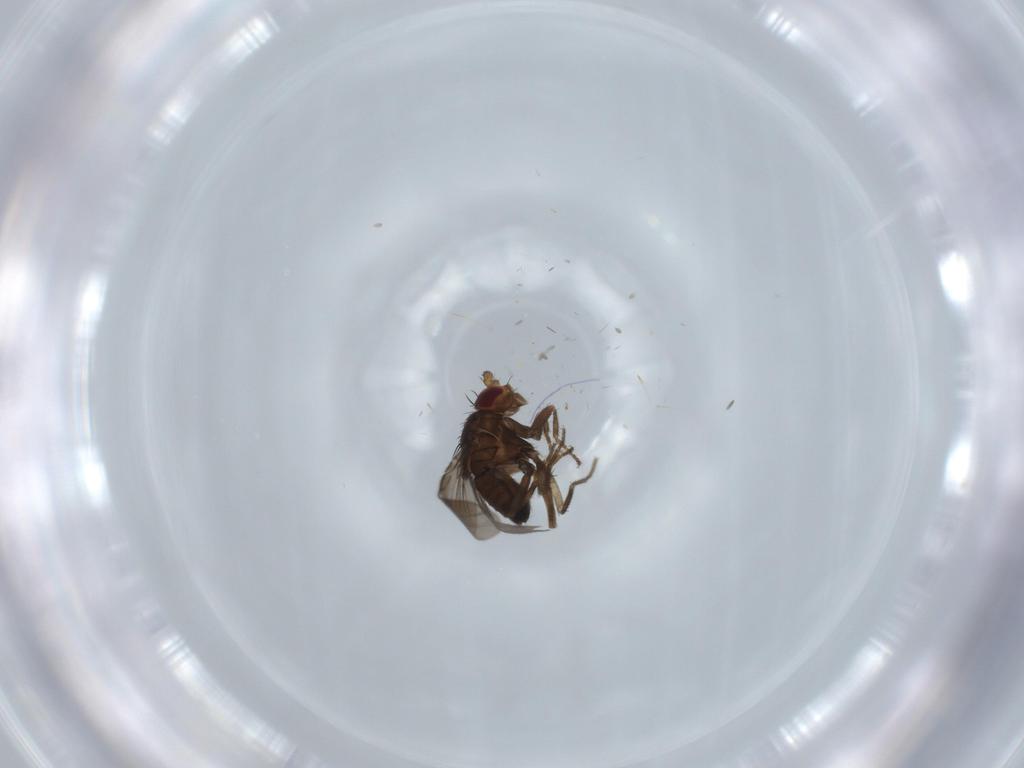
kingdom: Animalia
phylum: Arthropoda
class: Insecta
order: Diptera
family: Sphaeroceridae
